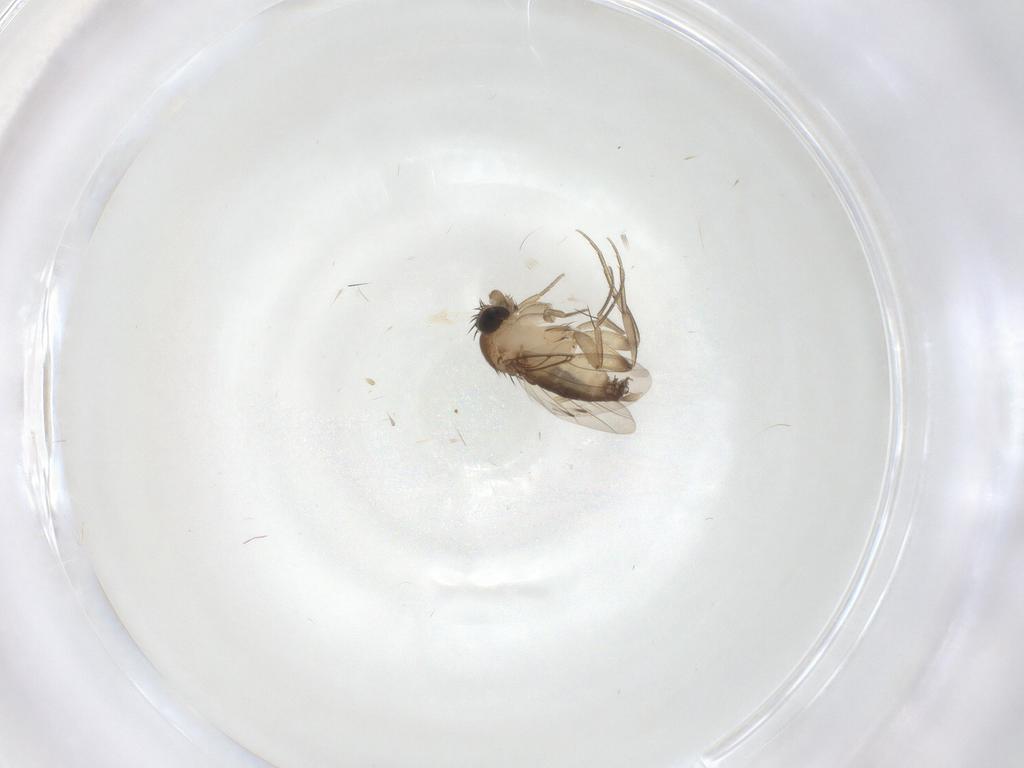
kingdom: Animalia
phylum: Arthropoda
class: Insecta
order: Diptera
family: Phoridae
